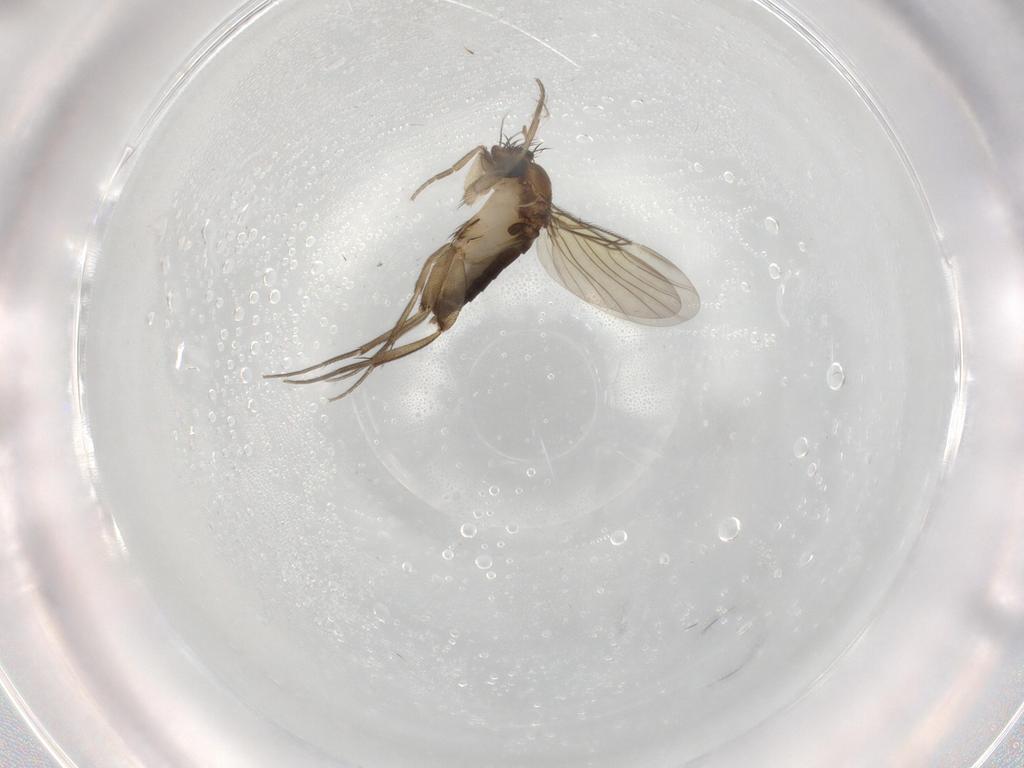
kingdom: Animalia
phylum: Arthropoda
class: Insecta
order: Diptera
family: Phoridae
